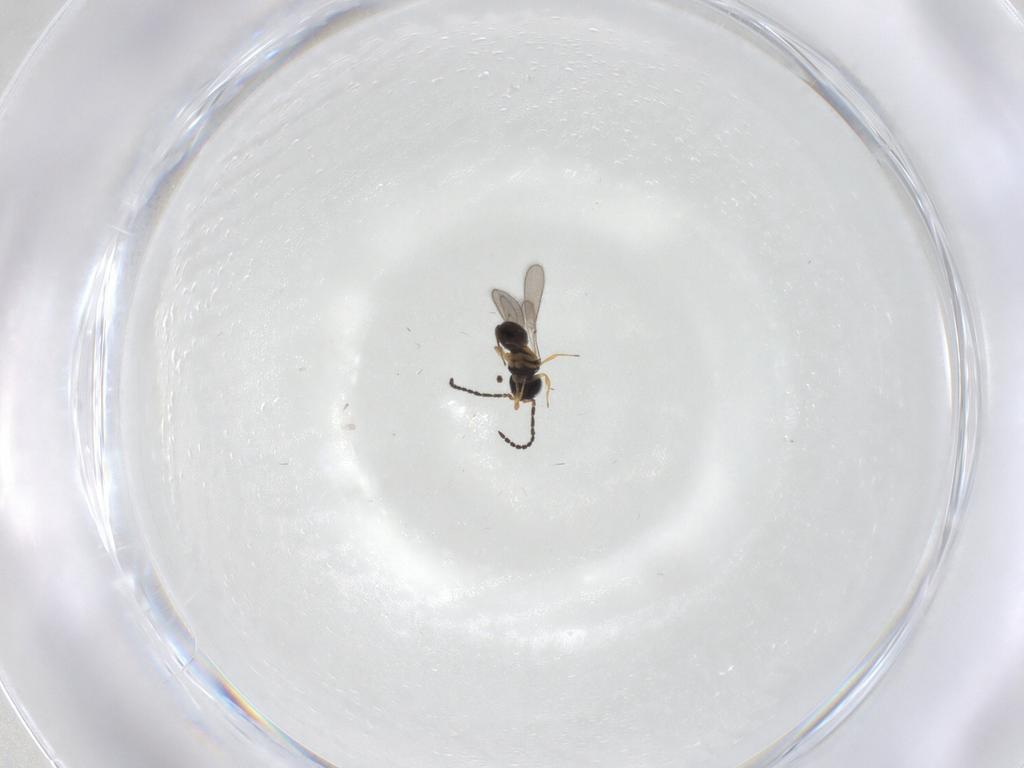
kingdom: Animalia
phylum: Arthropoda
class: Insecta
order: Hymenoptera
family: Scelionidae
